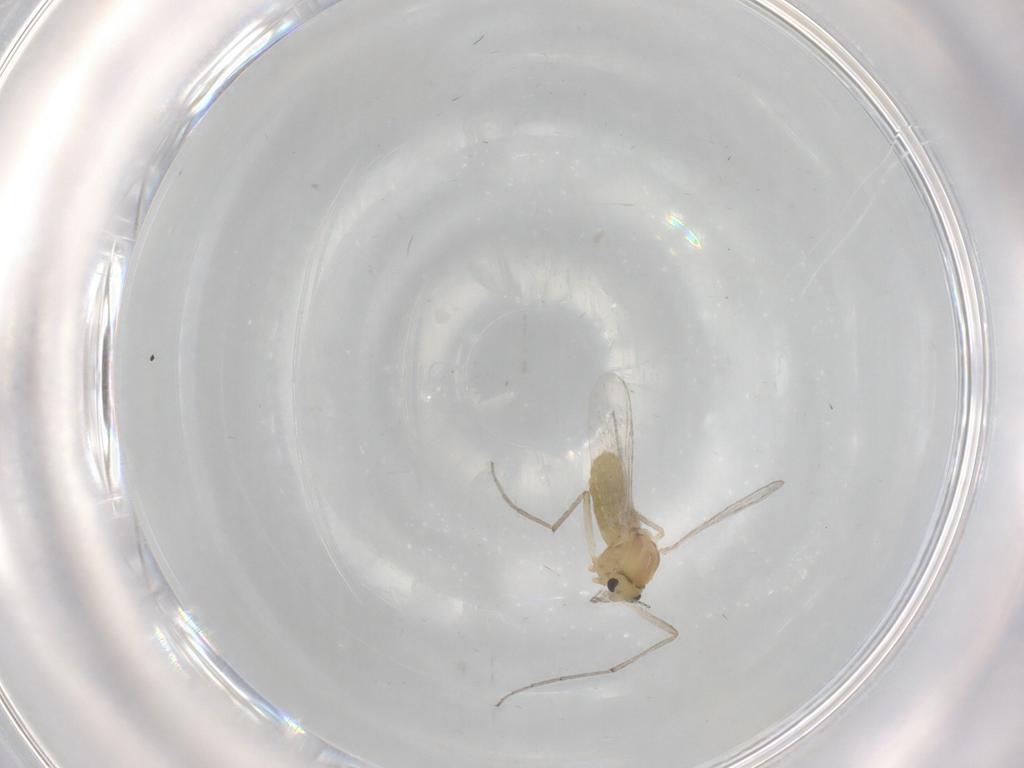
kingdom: Animalia
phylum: Arthropoda
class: Insecta
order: Diptera
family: Chironomidae
